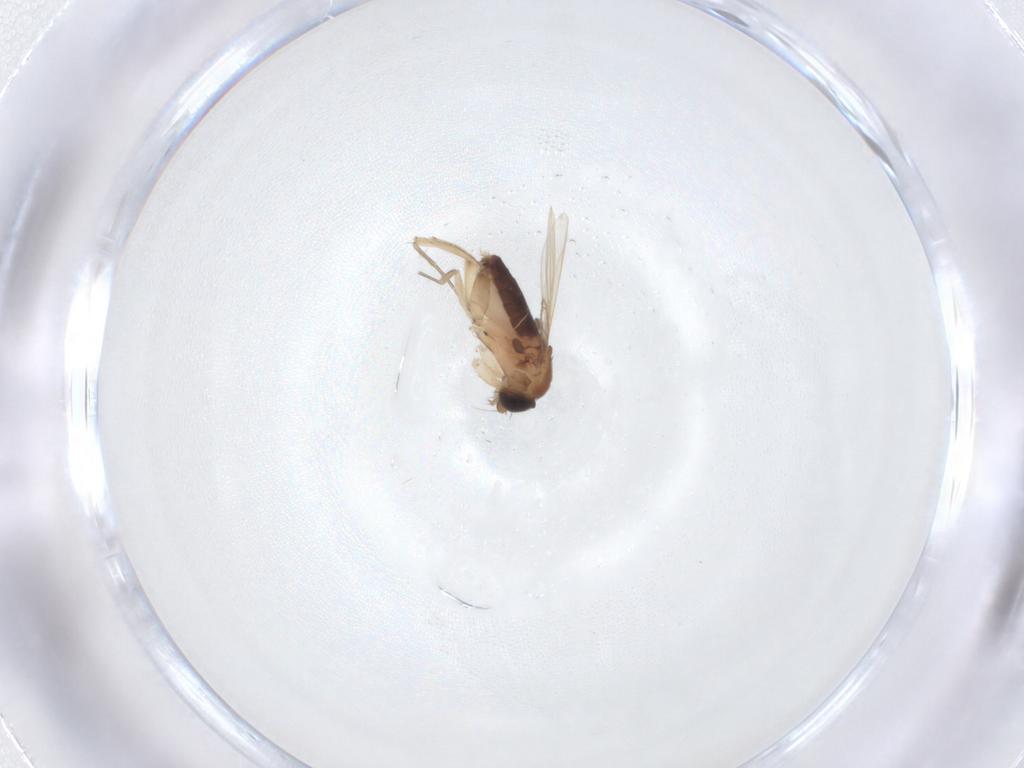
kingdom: Animalia
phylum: Arthropoda
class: Insecta
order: Diptera
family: Phoridae
